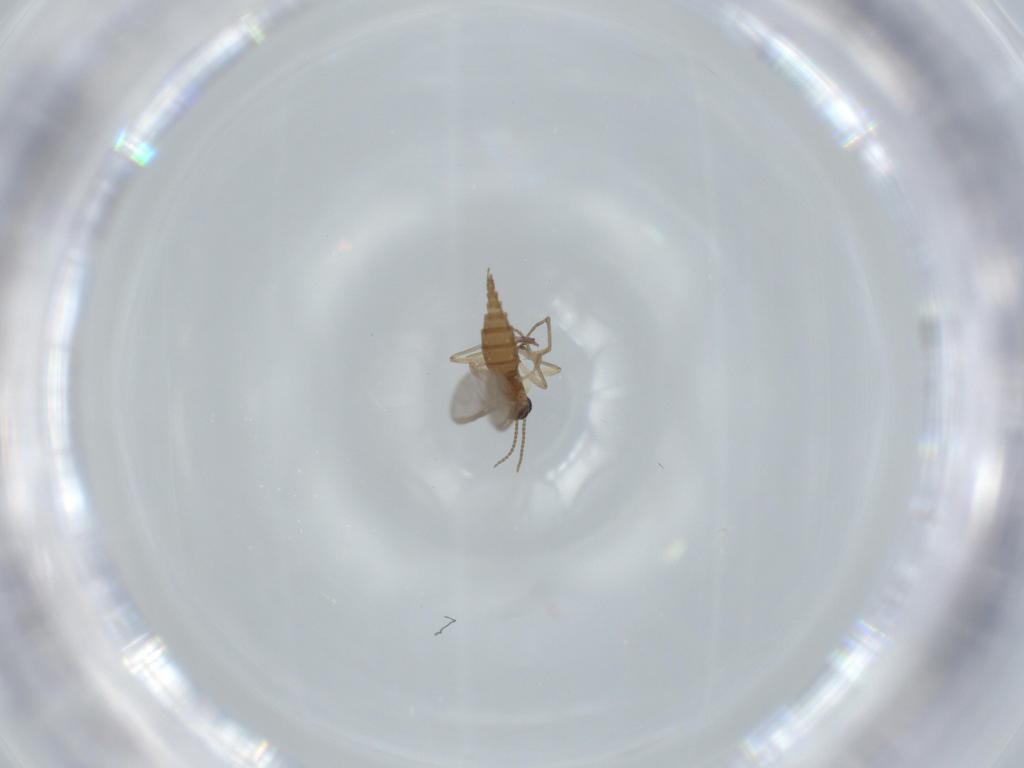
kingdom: Animalia
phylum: Arthropoda
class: Insecta
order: Diptera
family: Sciaridae
